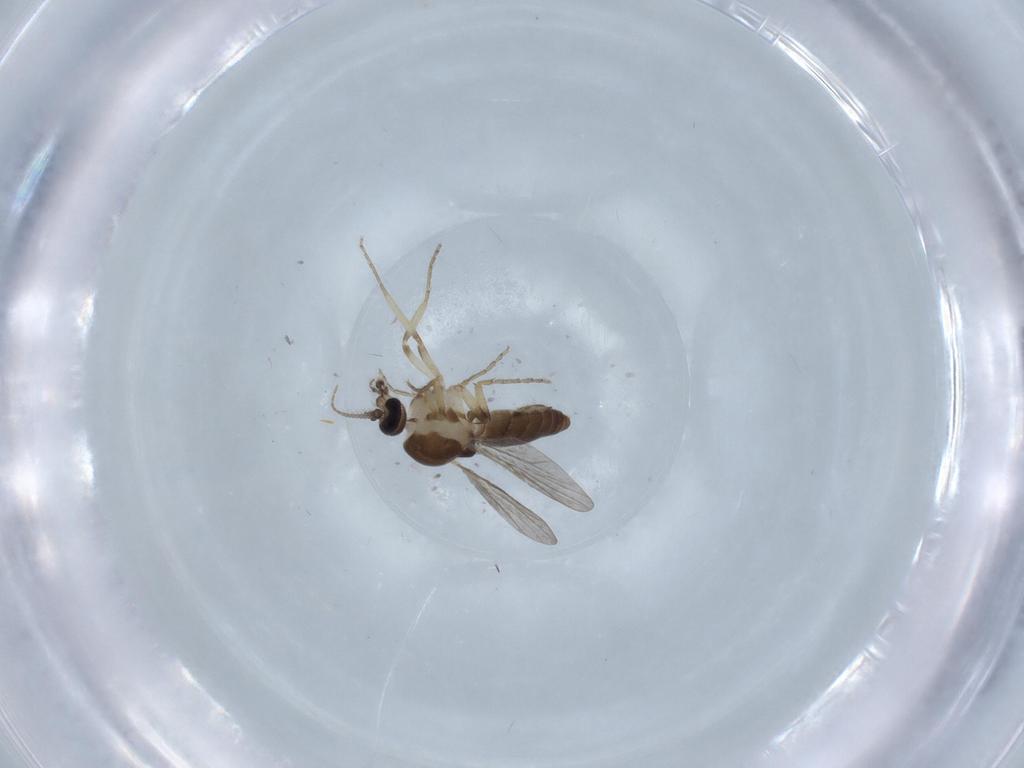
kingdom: Animalia
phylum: Arthropoda
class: Insecta
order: Diptera
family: Ceratopogonidae
